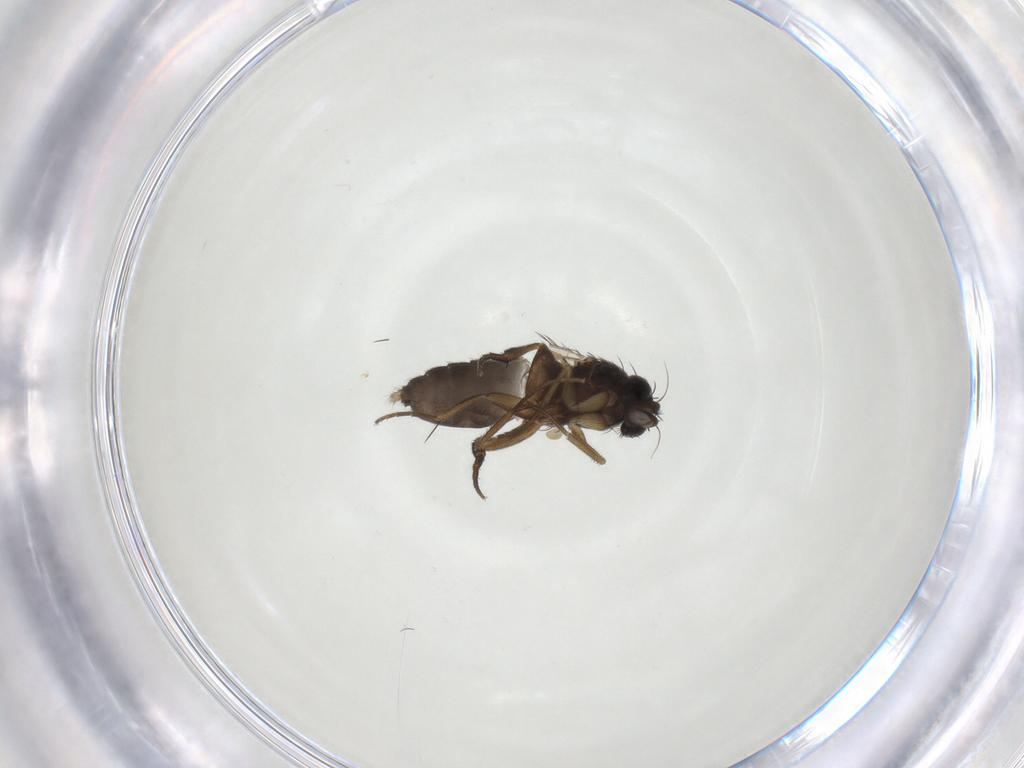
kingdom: Animalia
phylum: Arthropoda
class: Insecta
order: Diptera
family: Phoridae
